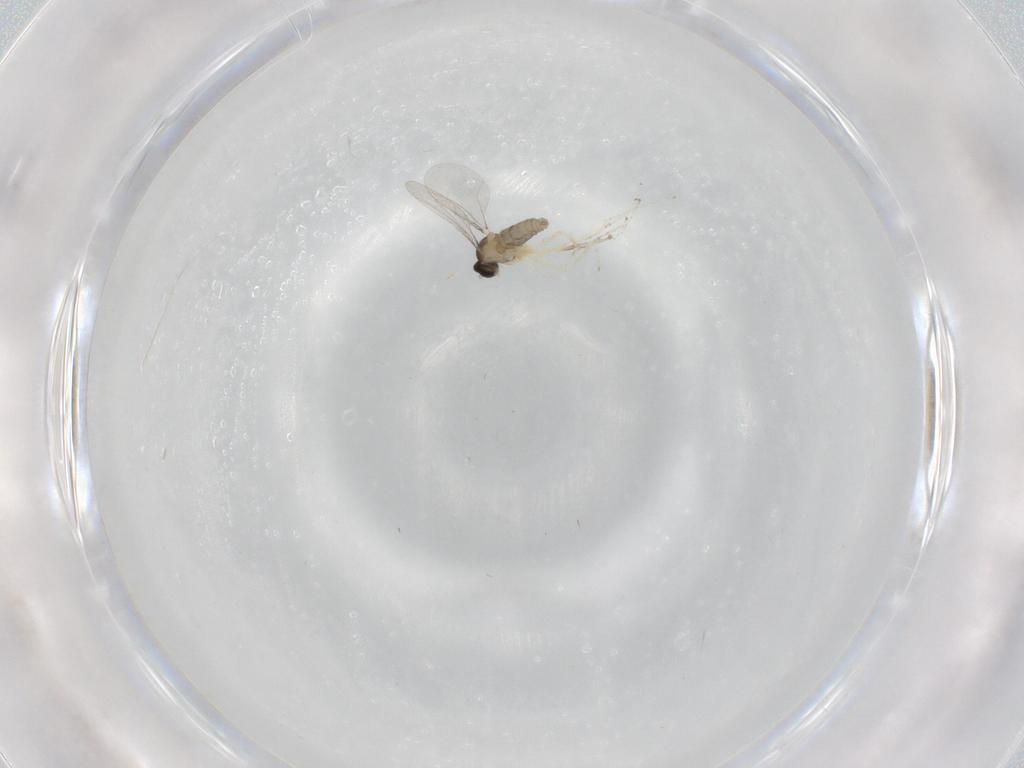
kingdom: Animalia
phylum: Arthropoda
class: Insecta
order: Diptera
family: Cecidomyiidae
